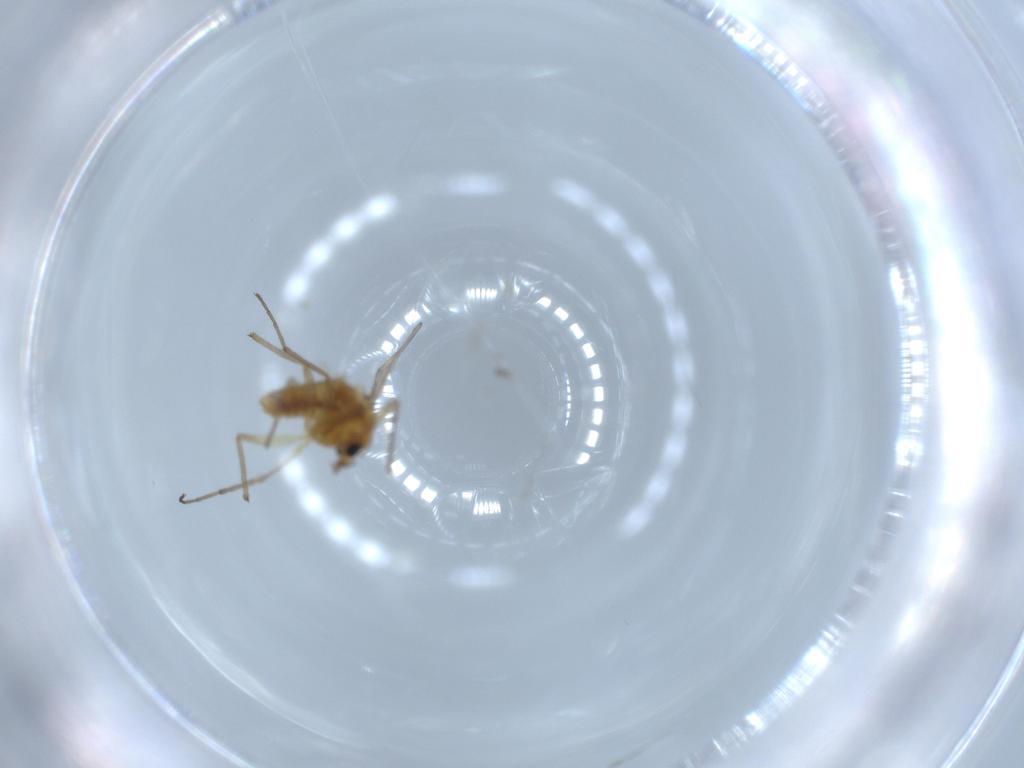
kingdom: Animalia
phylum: Arthropoda
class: Insecta
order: Diptera
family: Chironomidae
